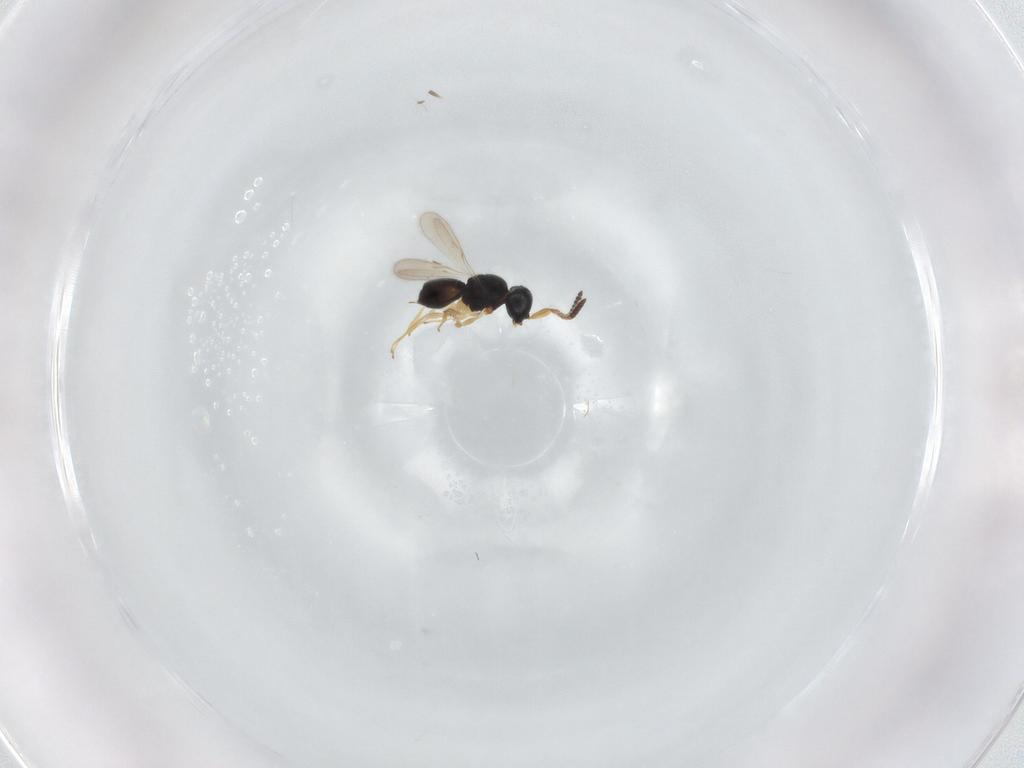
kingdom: Animalia
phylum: Arthropoda
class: Insecta
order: Hymenoptera
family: Scelionidae
